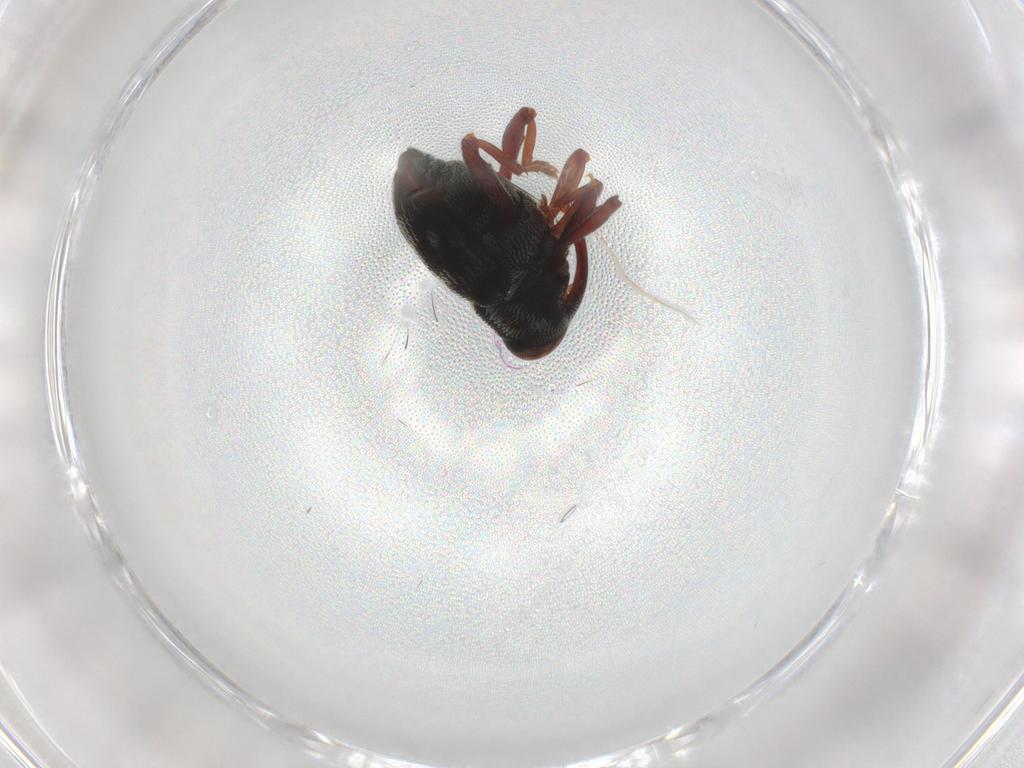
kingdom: Animalia
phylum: Arthropoda
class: Insecta
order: Coleoptera
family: Curculionidae
